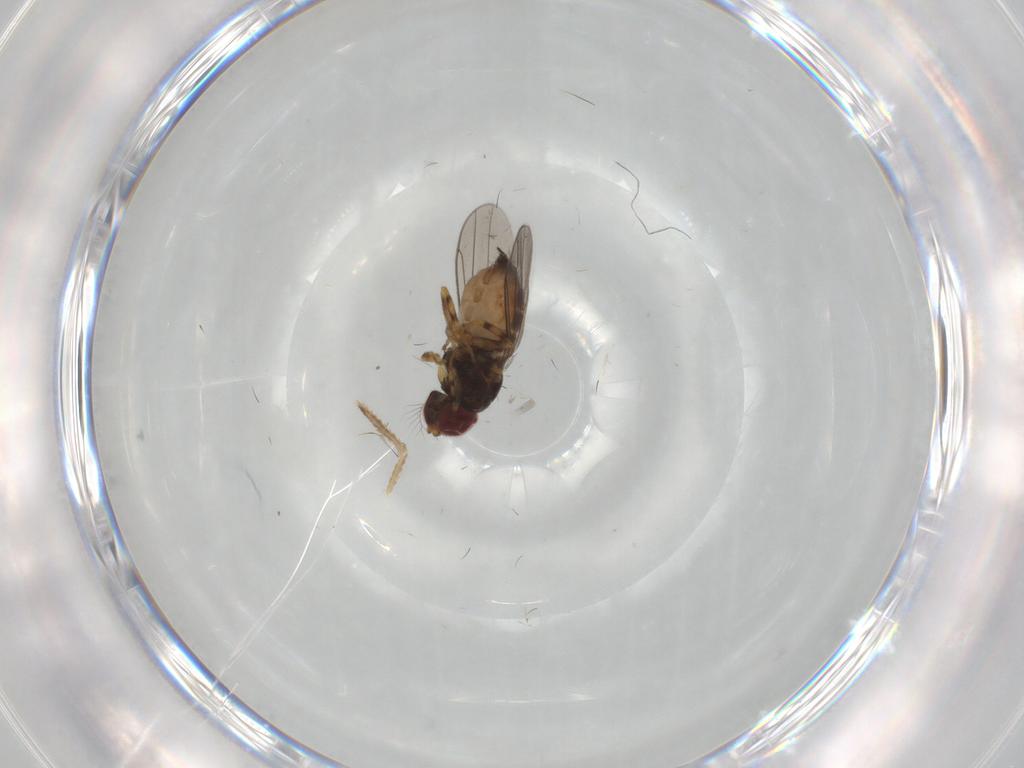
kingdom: Animalia
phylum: Arthropoda
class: Insecta
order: Diptera
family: Chloropidae
